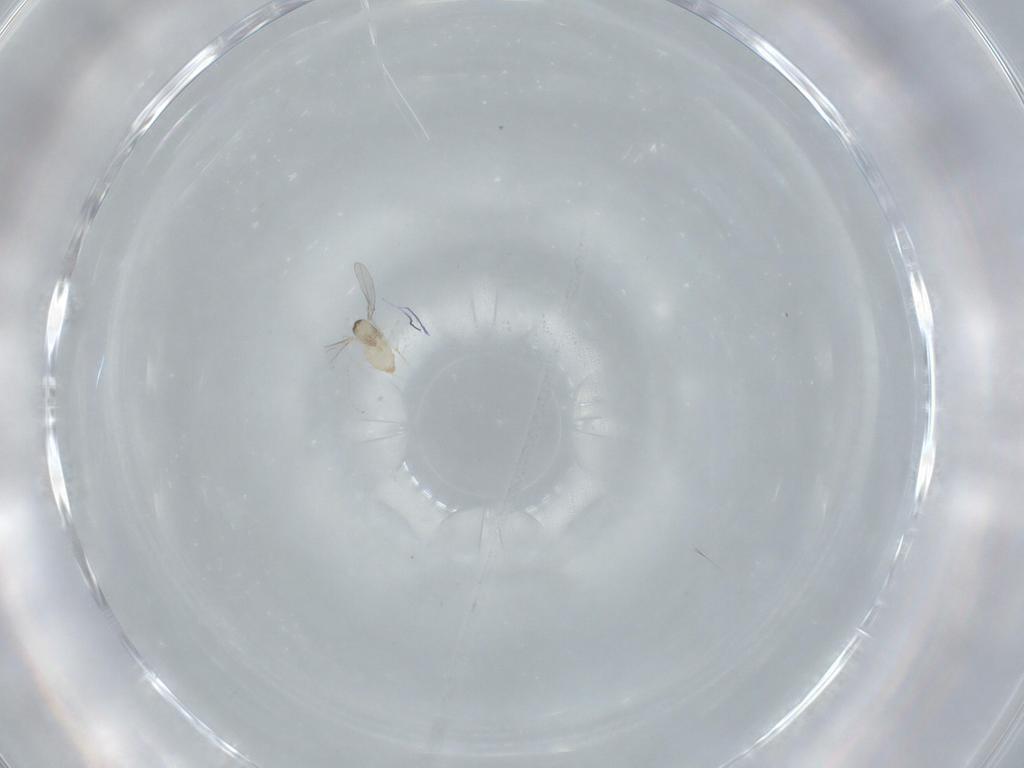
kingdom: Animalia
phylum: Arthropoda
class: Insecta
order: Diptera
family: Cecidomyiidae
